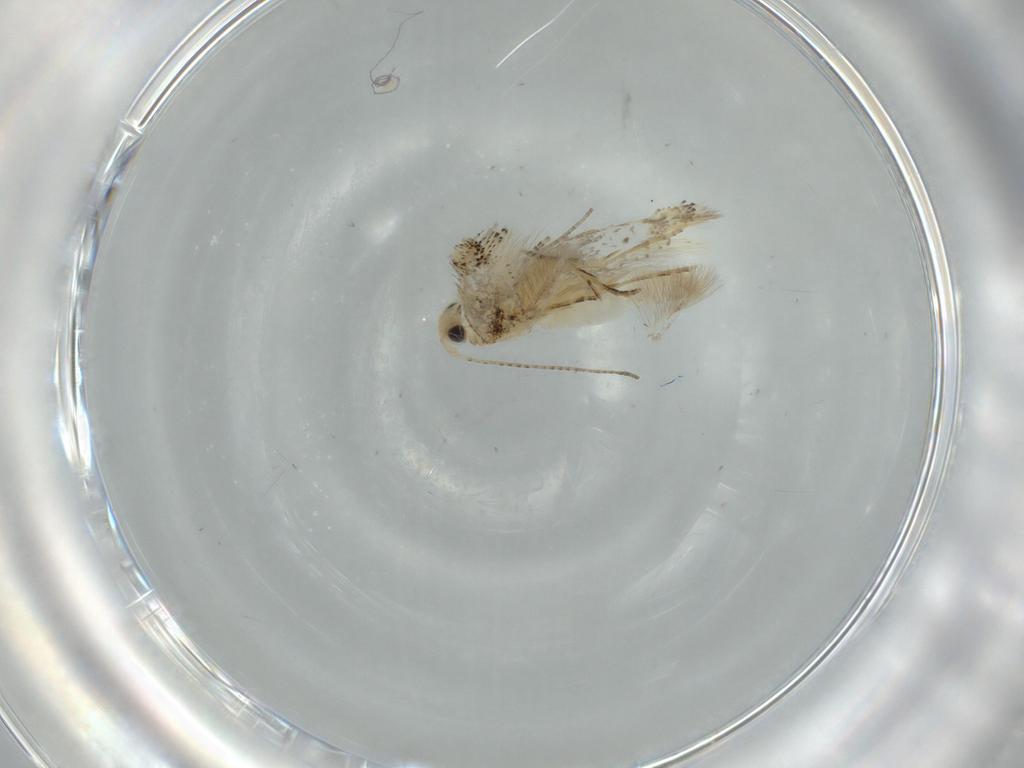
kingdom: Animalia
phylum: Arthropoda
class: Insecta
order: Lepidoptera
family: Bucculatricidae
